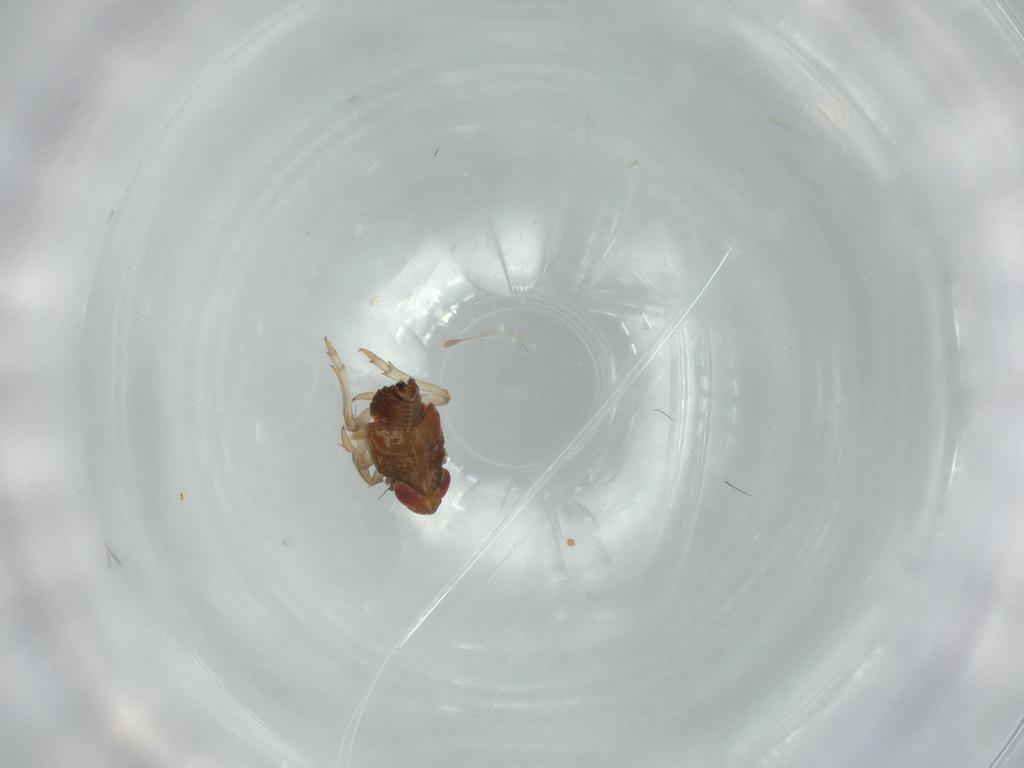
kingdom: Animalia
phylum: Arthropoda
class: Insecta
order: Hemiptera
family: Issidae
